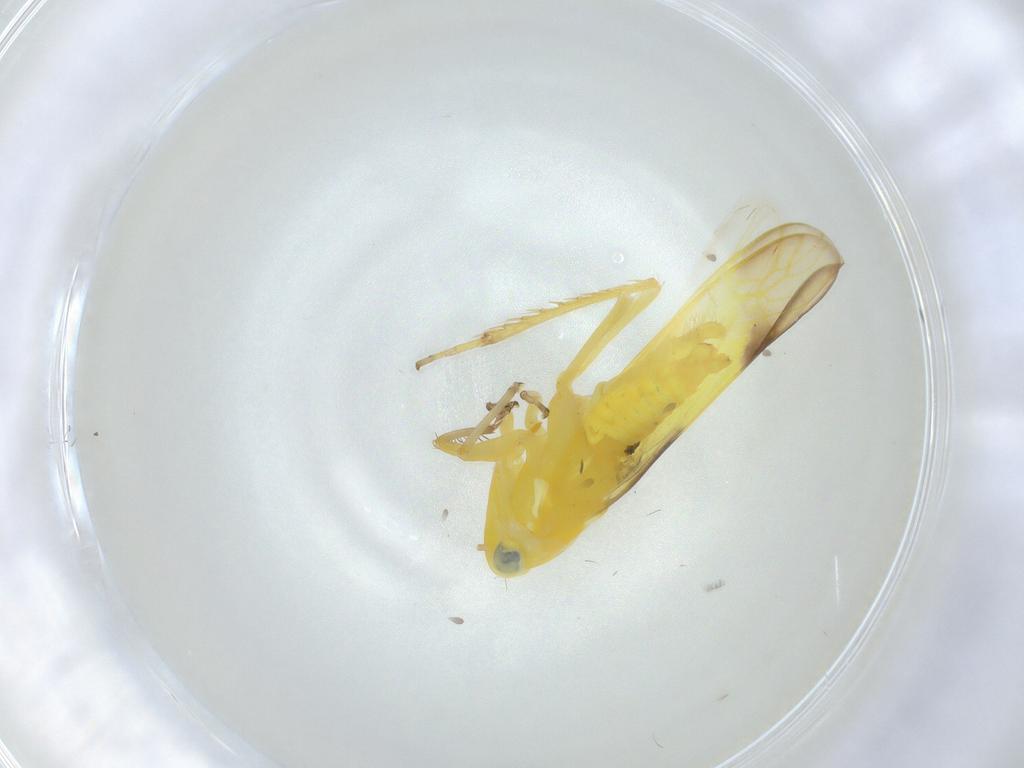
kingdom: Animalia
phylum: Arthropoda
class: Insecta
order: Hemiptera
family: Cicadellidae
